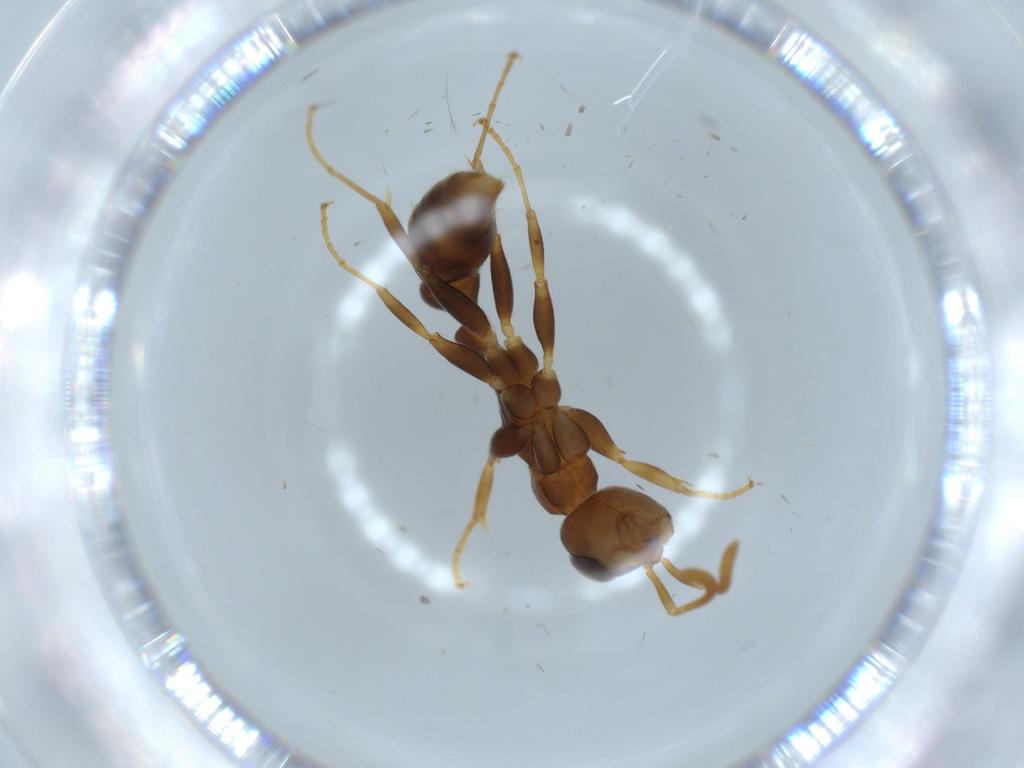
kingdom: Animalia
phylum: Arthropoda
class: Insecta
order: Hymenoptera
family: Formicidae
